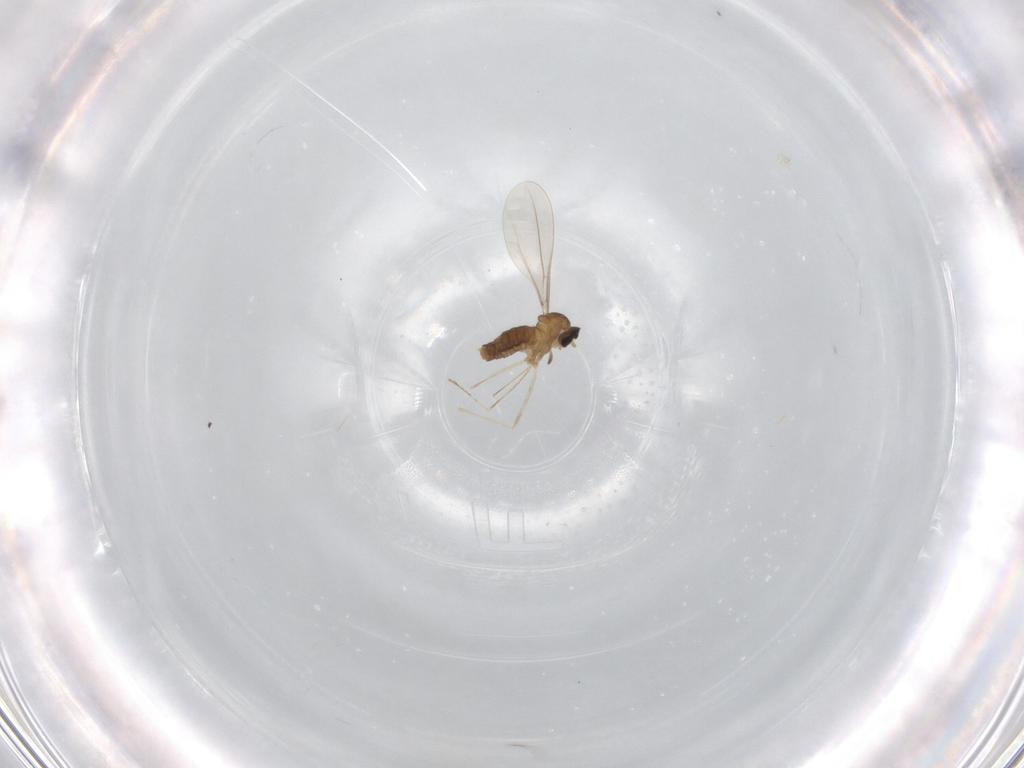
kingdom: Animalia
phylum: Arthropoda
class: Insecta
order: Diptera
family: Cecidomyiidae
